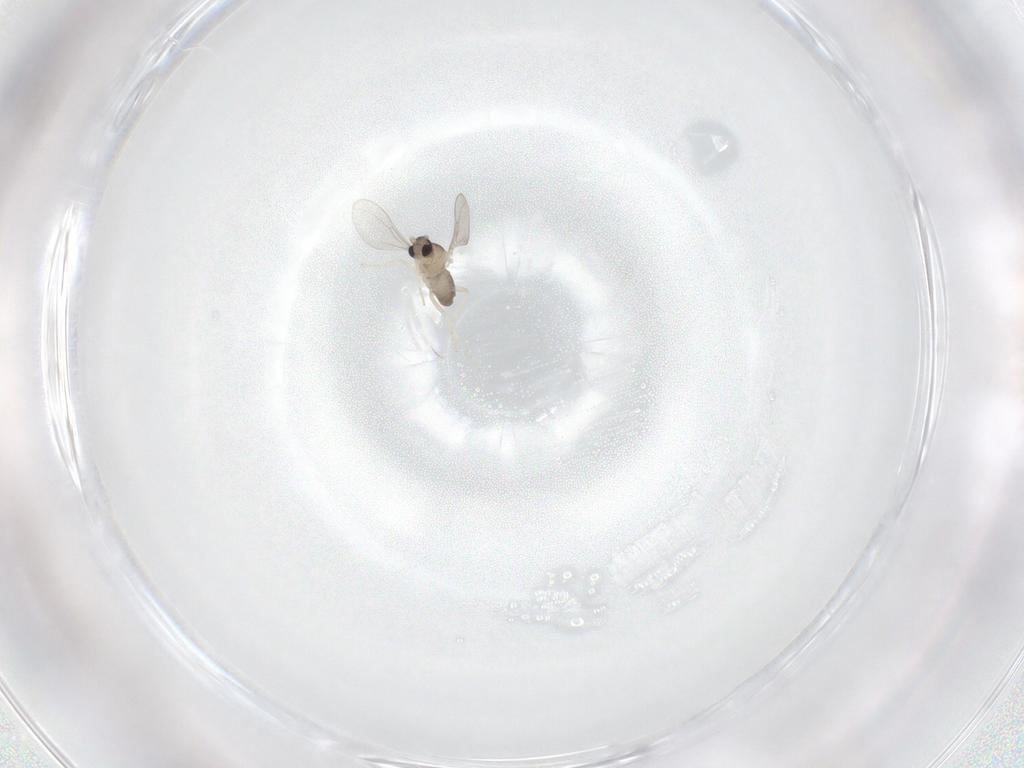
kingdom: Animalia
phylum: Arthropoda
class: Insecta
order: Diptera
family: Cecidomyiidae
